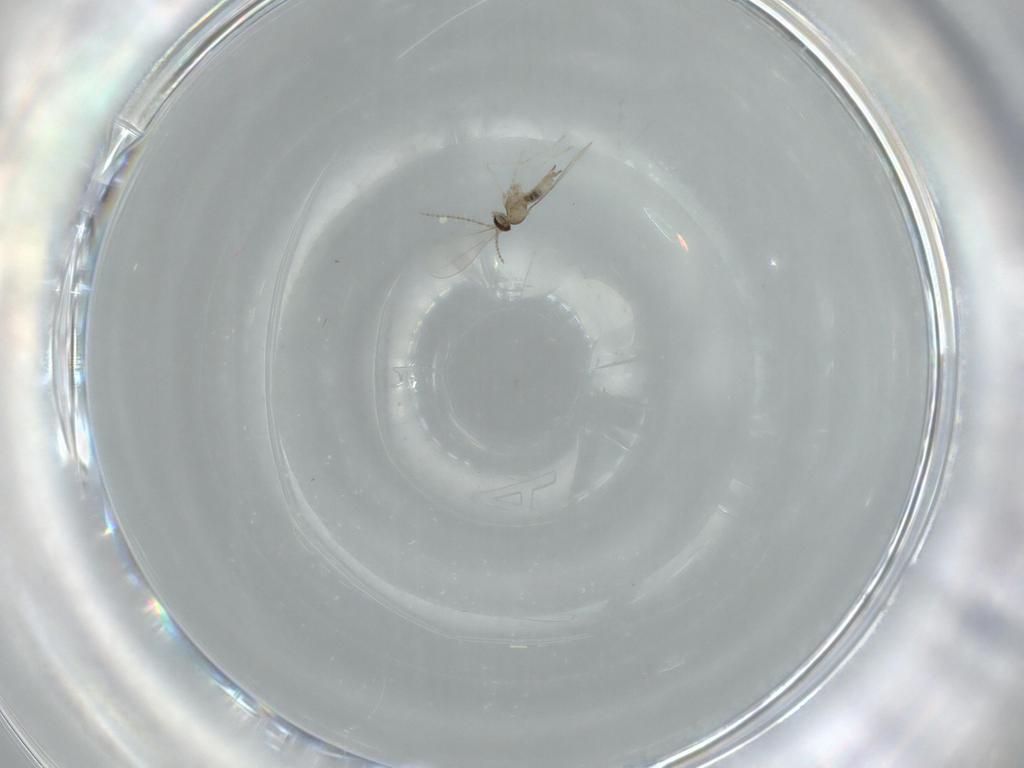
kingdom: Animalia
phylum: Arthropoda
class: Insecta
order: Diptera
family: Cecidomyiidae
